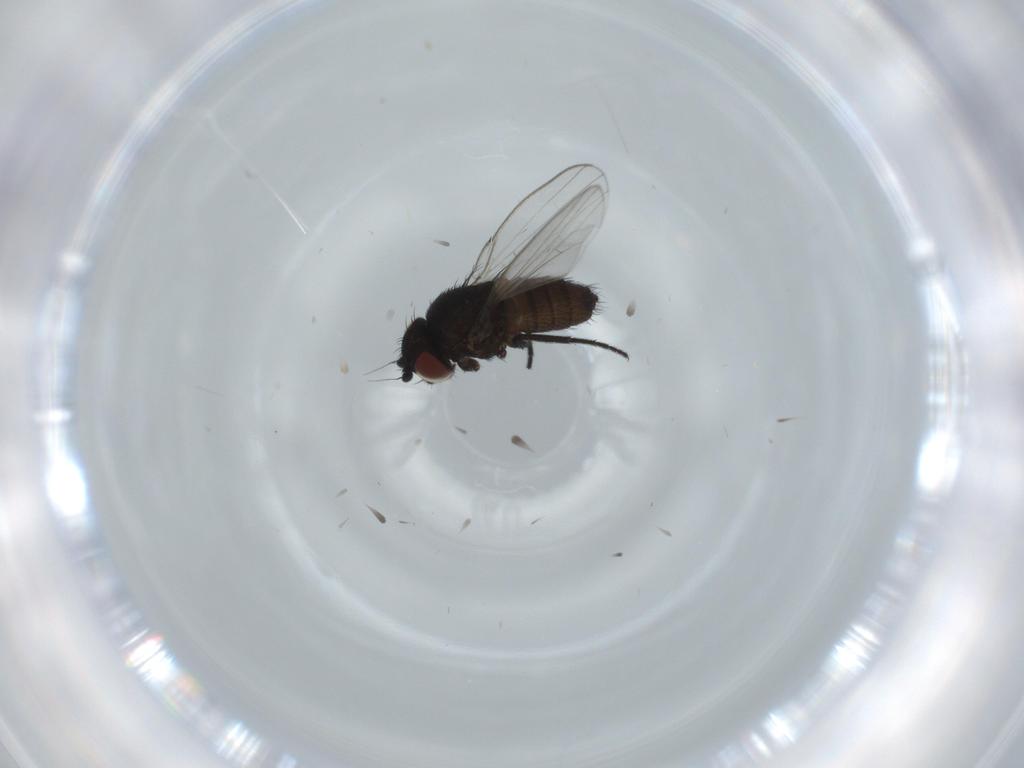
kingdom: Animalia
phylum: Arthropoda
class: Insecta
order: Diptera
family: Milichiidae
